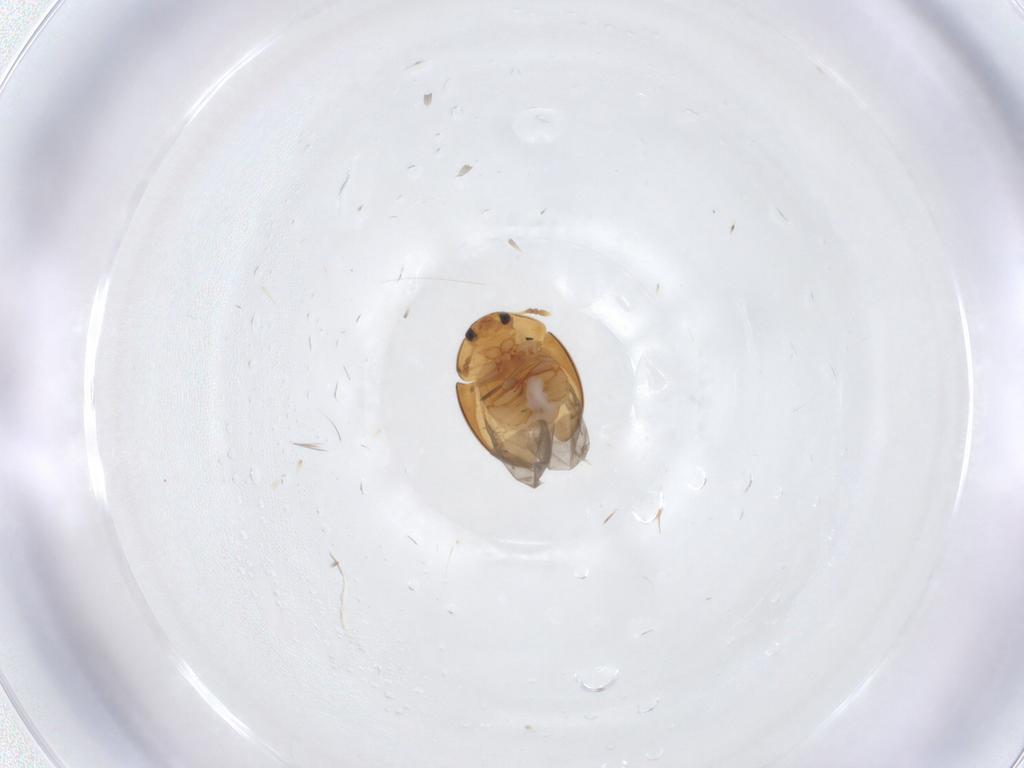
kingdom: Animalia
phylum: Arthropoda
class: Insecta
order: Coleoptera
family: Phalacridae
